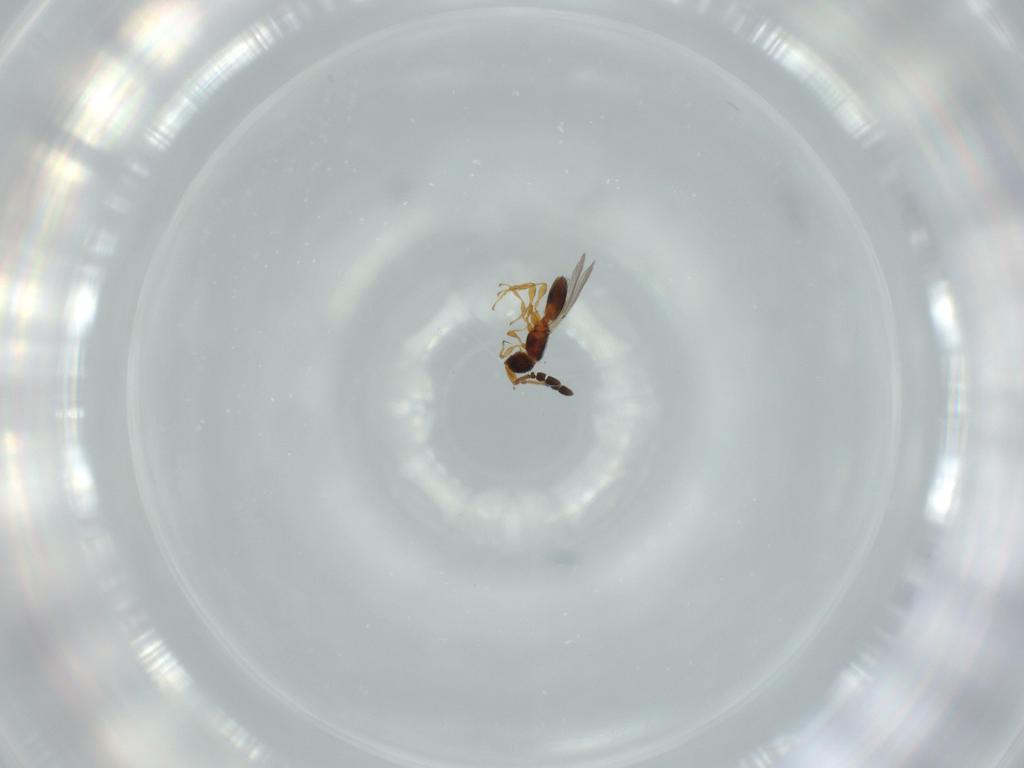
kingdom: Animalia
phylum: Arthropoda
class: Insecta
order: Hymenoptera
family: Diapriidae
